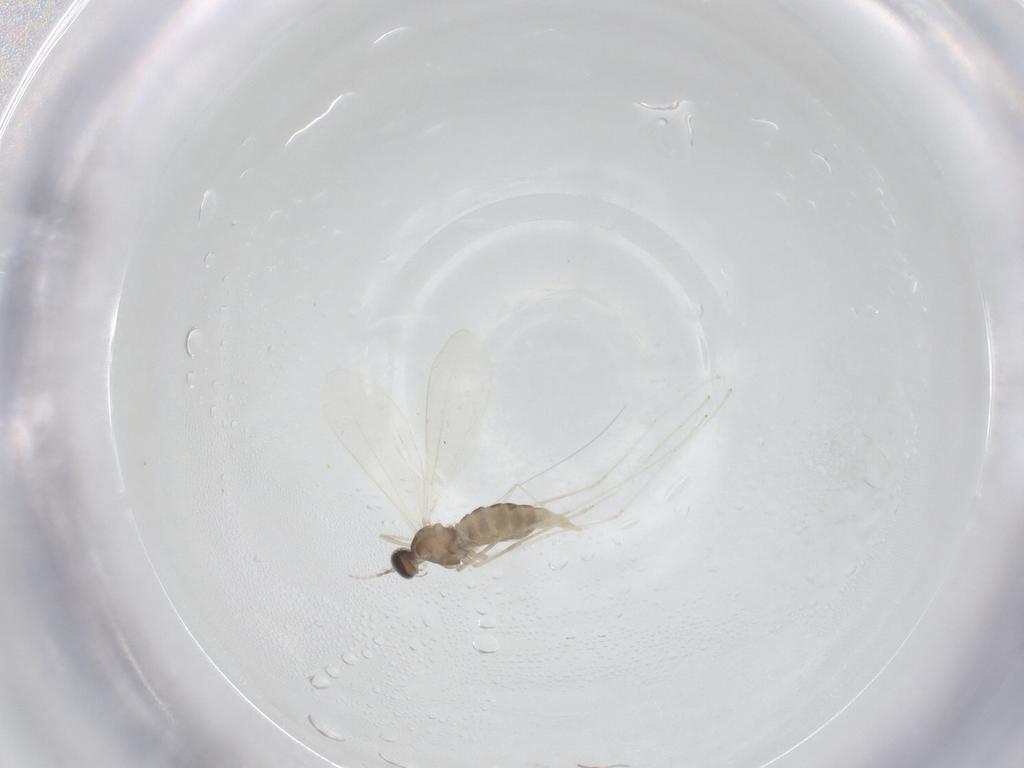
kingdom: Animalia
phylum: Arthropoda
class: Insecta
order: Diptera
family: Cecidomyiidae
